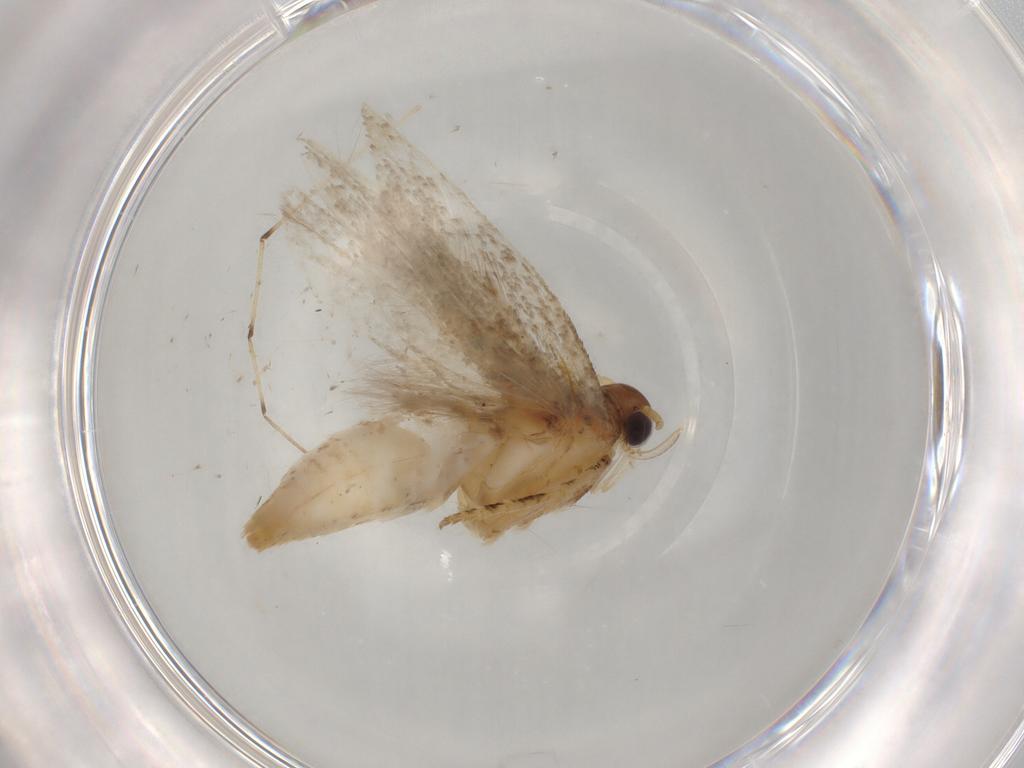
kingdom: Animalia
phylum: Arthropoda
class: Insecta
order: Lepidoptera
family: Gelechiidae
